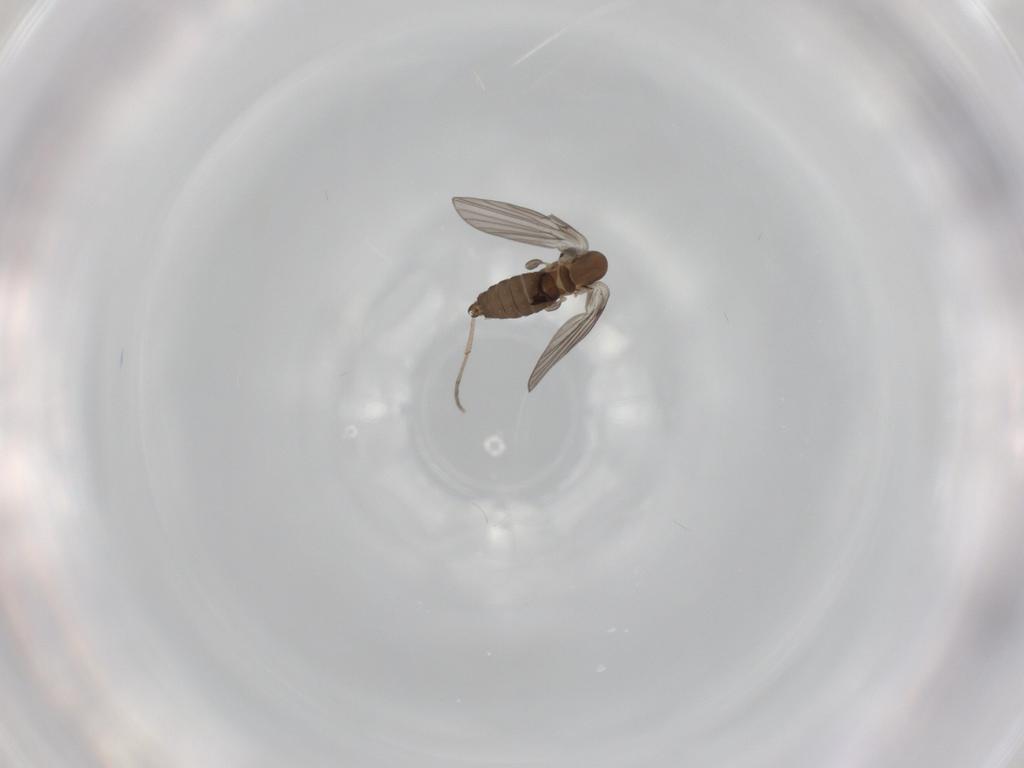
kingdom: Animalia
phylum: Arthropoda
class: Insecta
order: Diptera
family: Psychodidae
